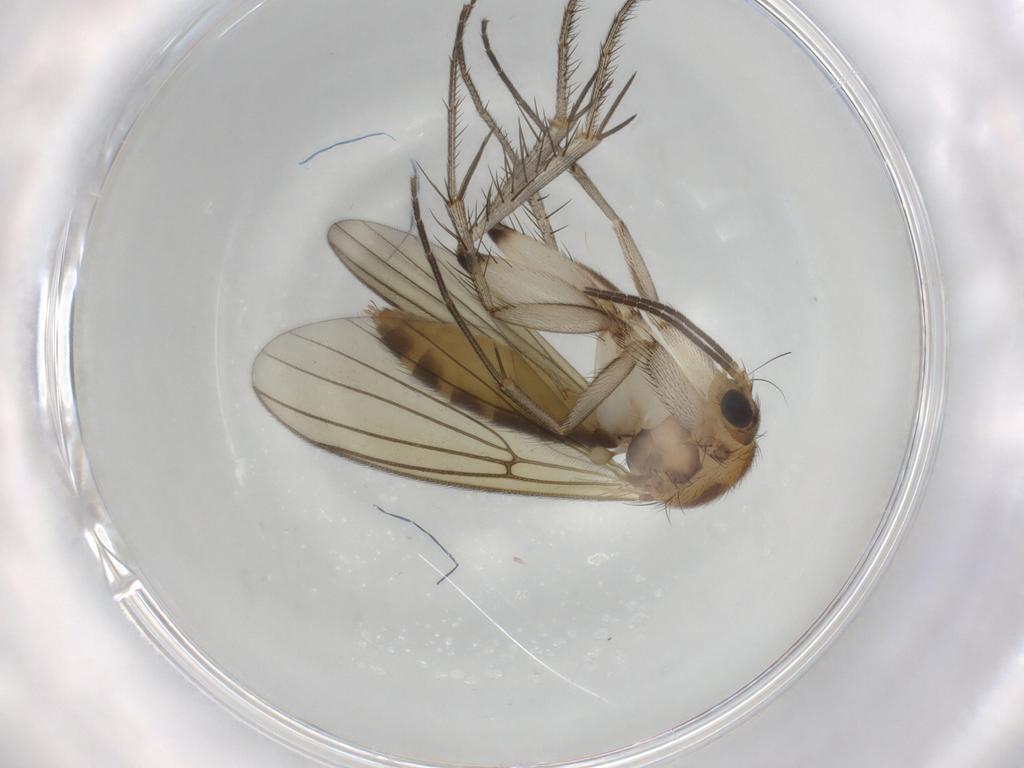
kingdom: Animalia
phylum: Arthropoda
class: Insecta
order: Diptera
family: Mycetophilidae
